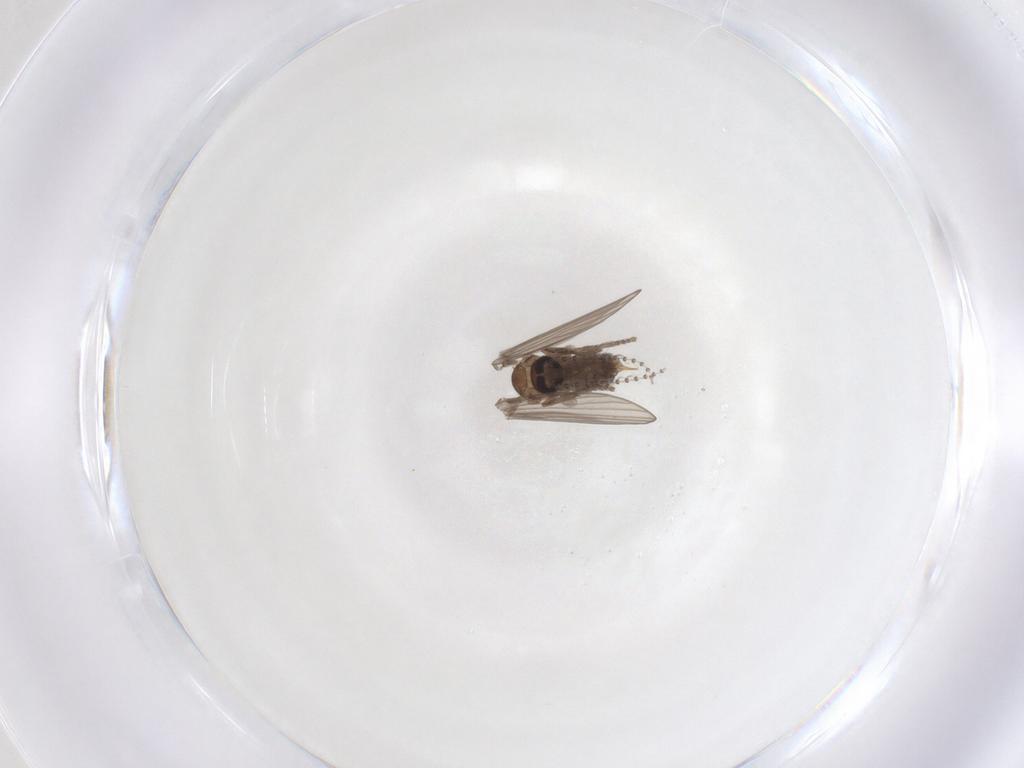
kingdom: Animalia
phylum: Arthropoda
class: Insecta
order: Diptera
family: Psychodidae
